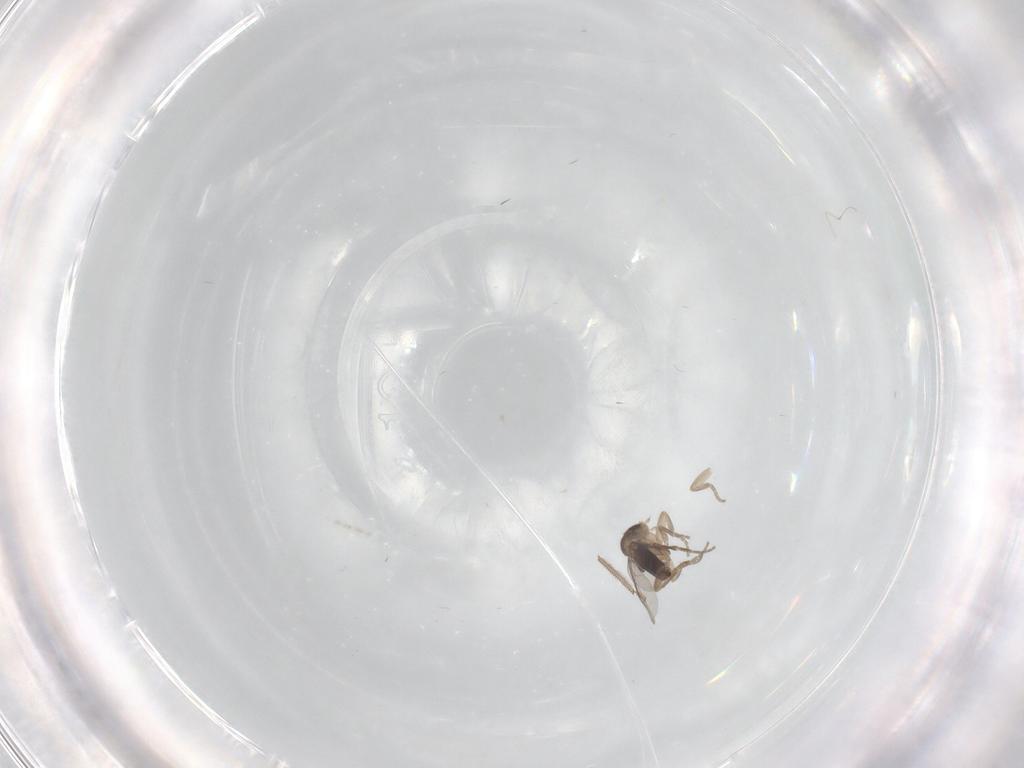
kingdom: Animalia
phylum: Arthropoda
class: Insecta
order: Diptera
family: Cecidomyiidae
